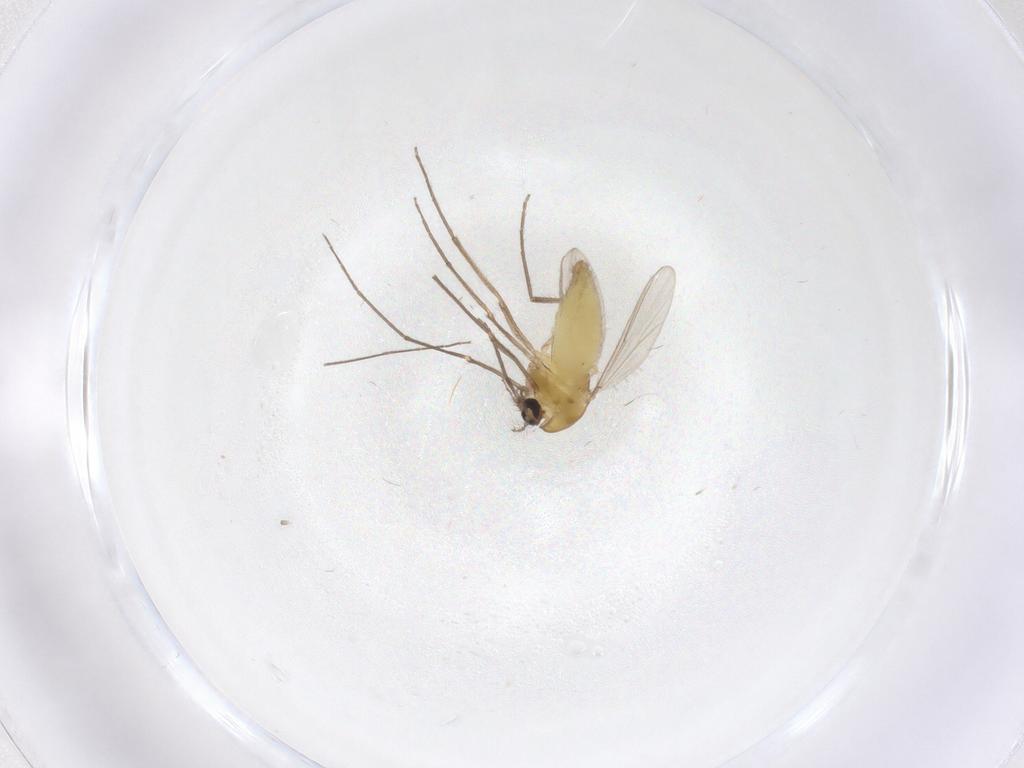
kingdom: Animalia
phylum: Arthropoda
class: Insecta
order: Diptera
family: Chironomidae
